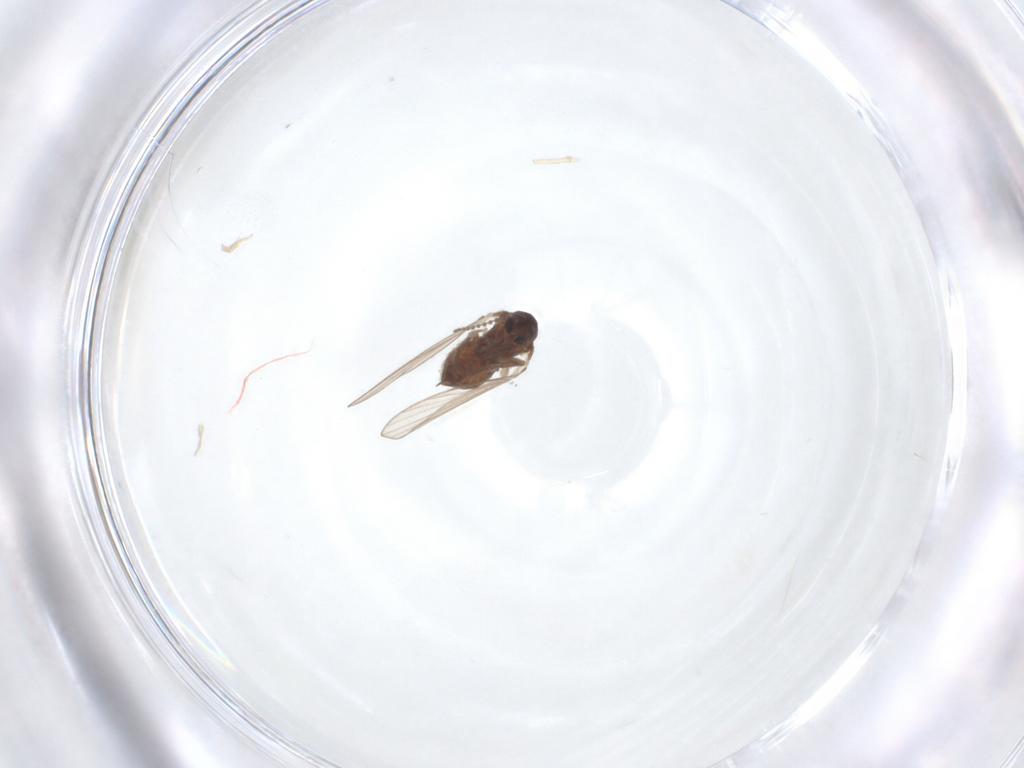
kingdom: Animalia
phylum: Arthropoda
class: Insecta
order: Diptera
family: Psychodidae
